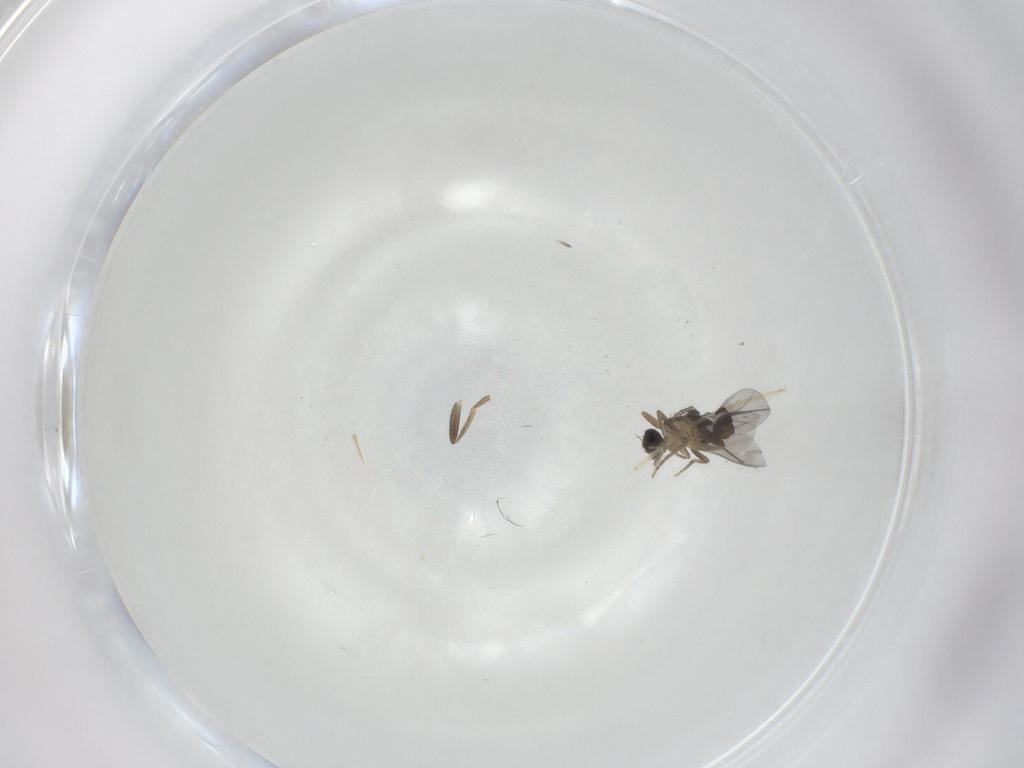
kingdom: Animalia
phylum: Arthropoda
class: Insecta
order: Diptera
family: Chironomidae
